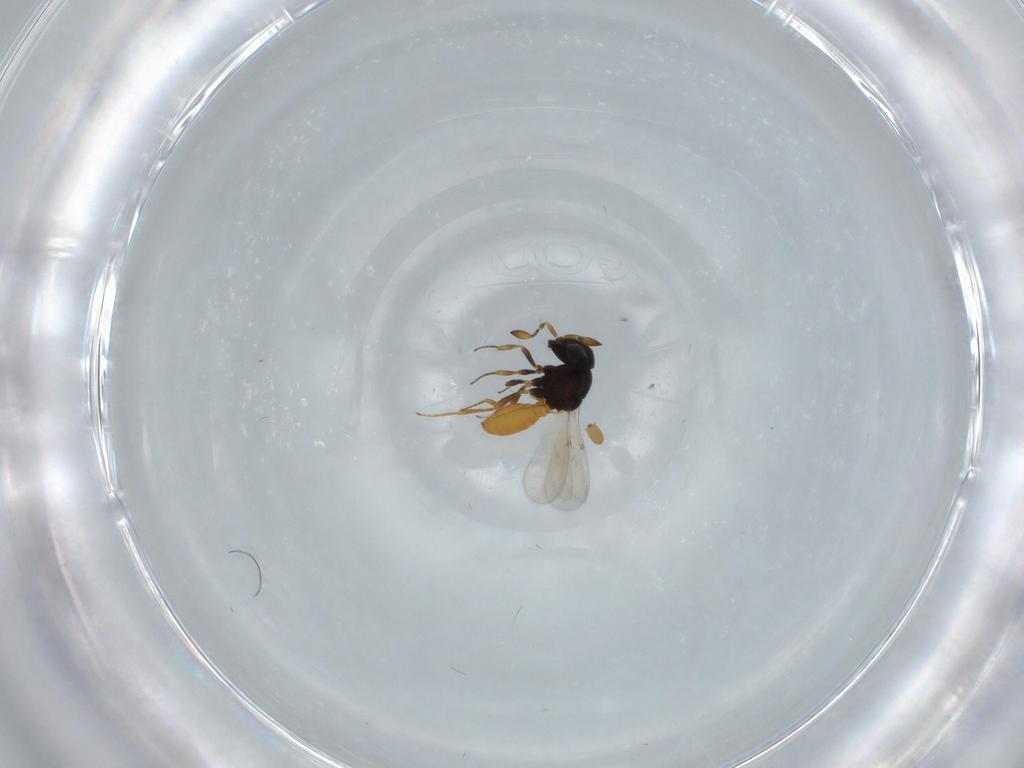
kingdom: Animalia
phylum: Arthropoda
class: Insecta
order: Hymenoptera
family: Scelionidae
